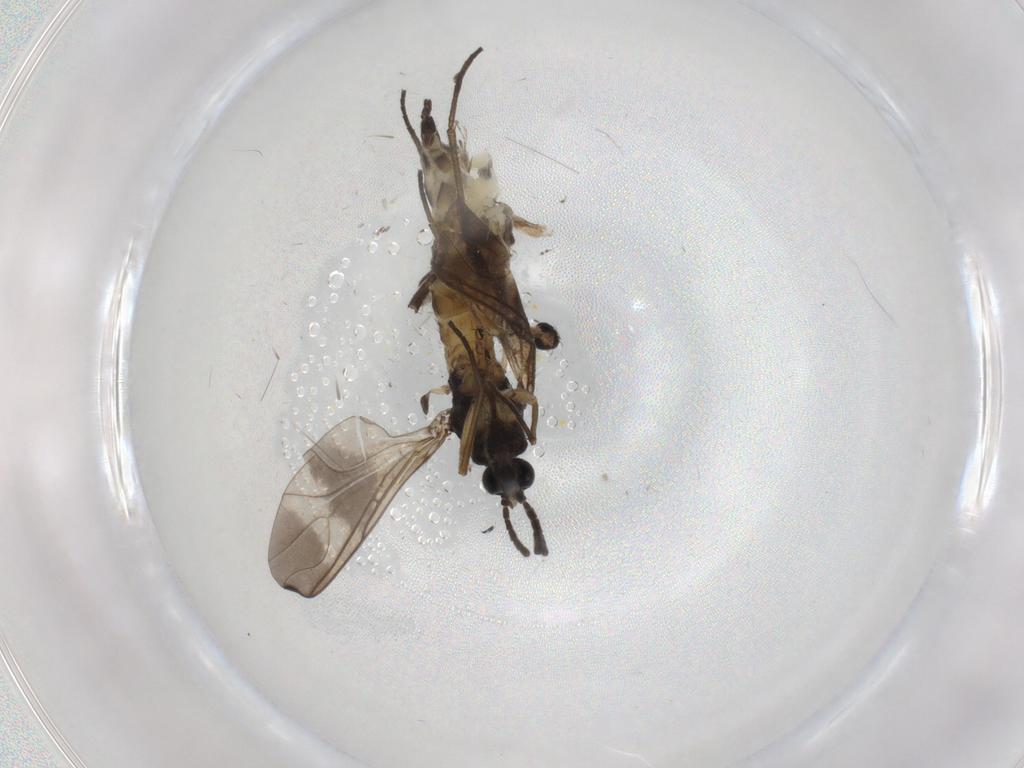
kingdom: Animalia
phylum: Arthropoda
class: Insecta
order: Diptera
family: Sciaridae
